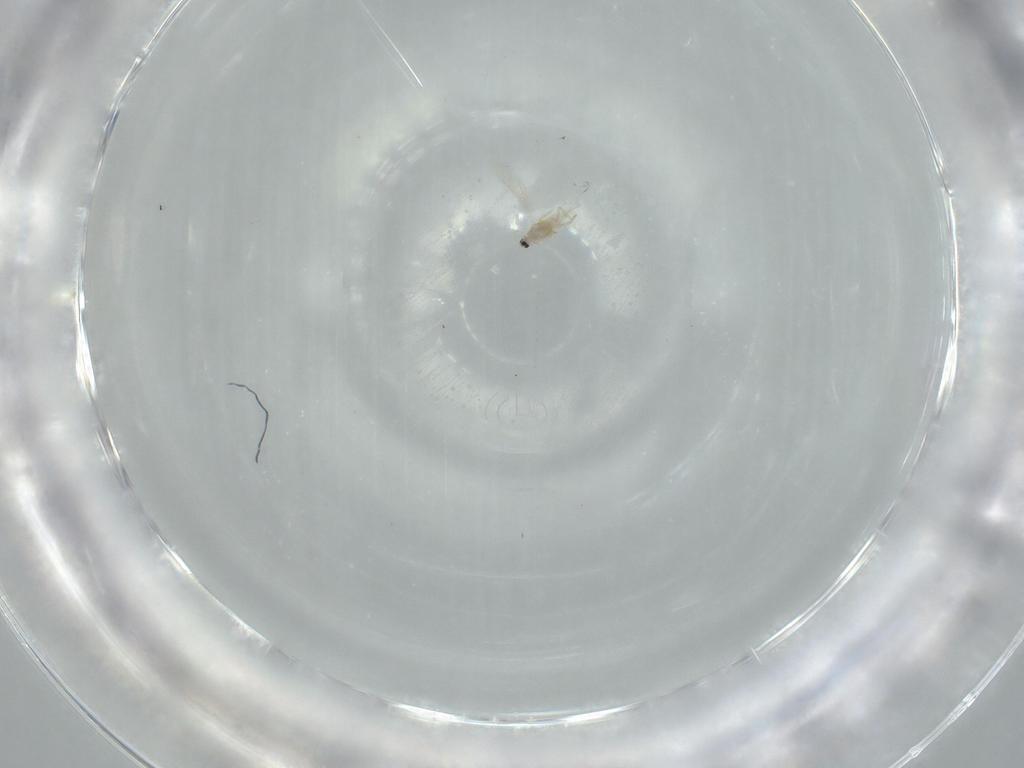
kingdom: Animalia
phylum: Arthropoda
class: Insecta
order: Coleoptera
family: Corylophidae
